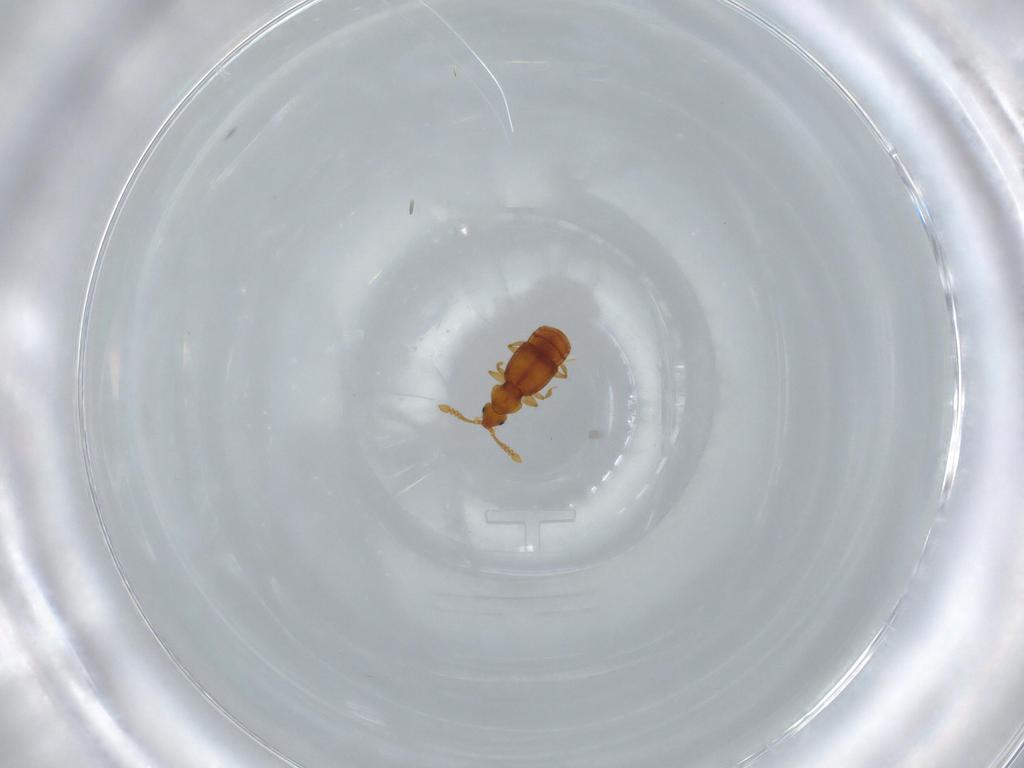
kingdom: Animalia
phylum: Arthropoda
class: Insecta
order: Coleoptera
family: Staphylinidae
